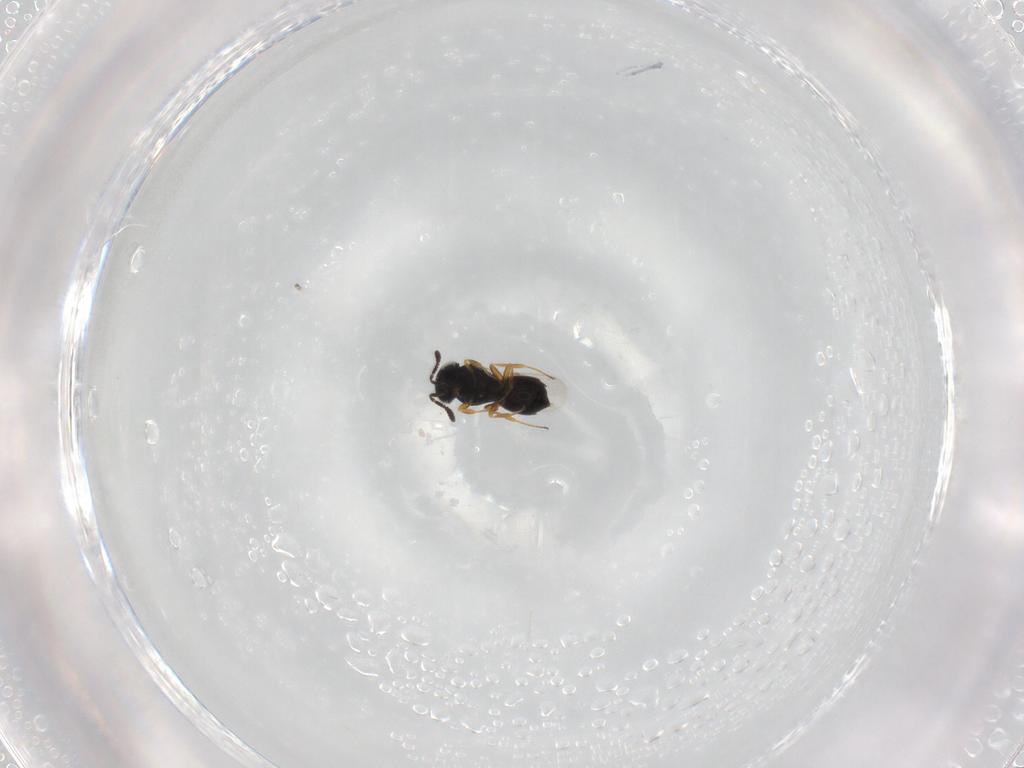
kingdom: Animalia
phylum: Arthropoda
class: Insecta
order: Hymenoptera
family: Scelionidae
